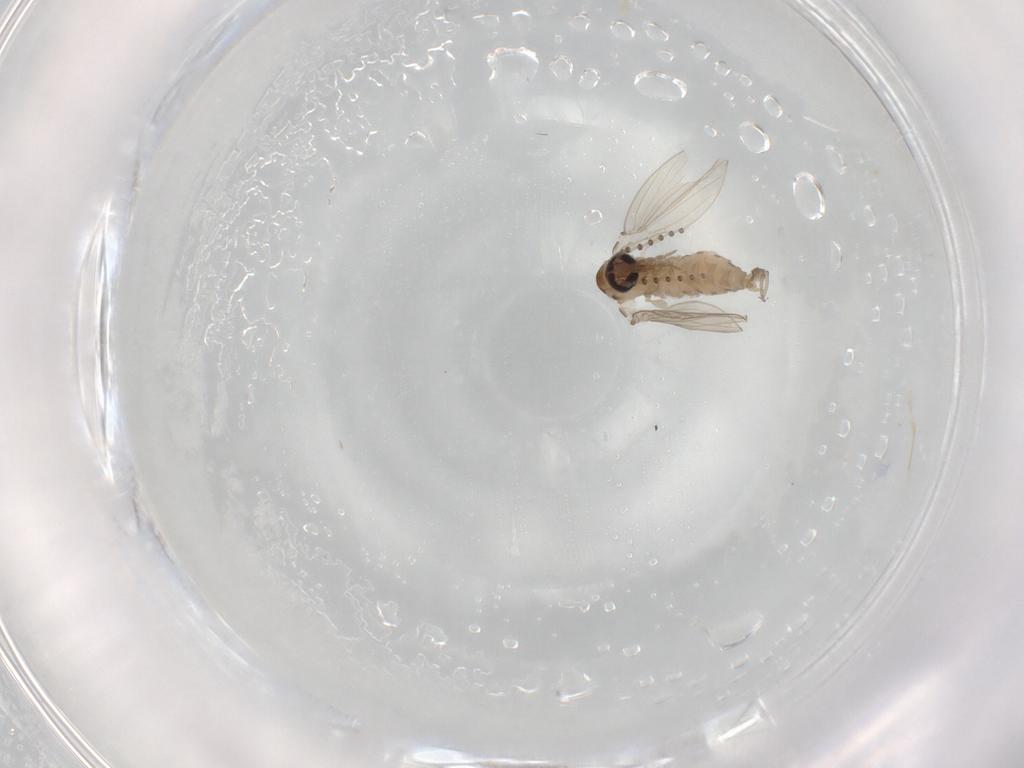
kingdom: Animalia
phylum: Arthropoda
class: Insecta
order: Diptera
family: Psychodidae
